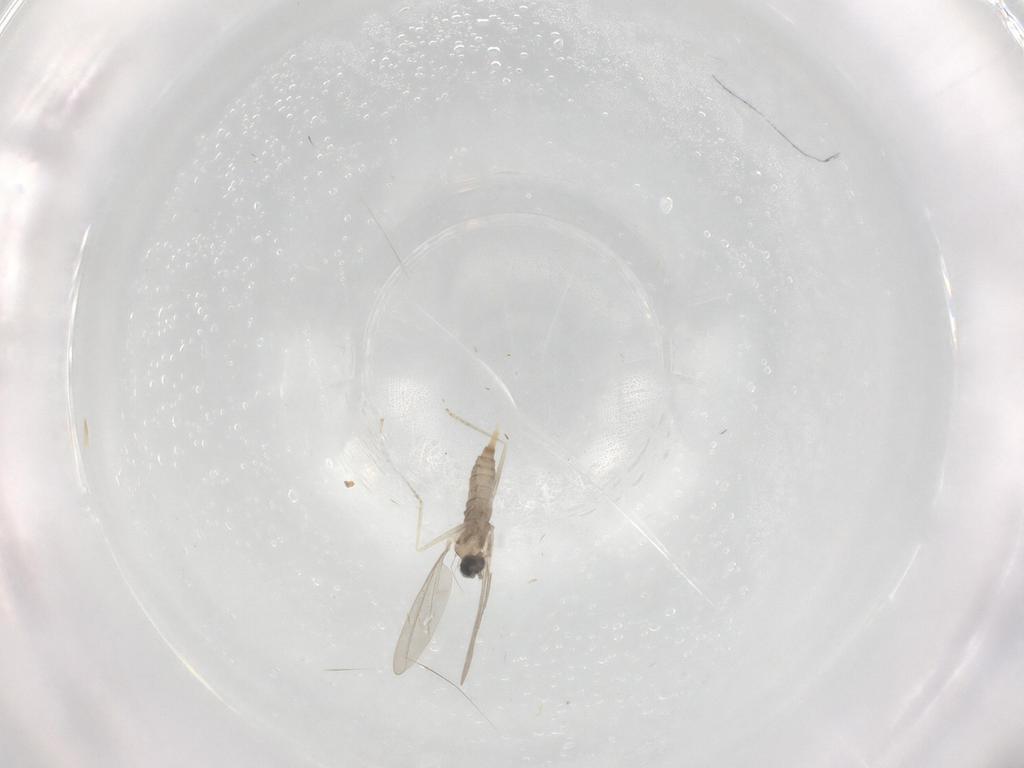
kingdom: Animalia
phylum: Arthropoda
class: Insecta
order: Diptera
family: Cecidomyiidae
